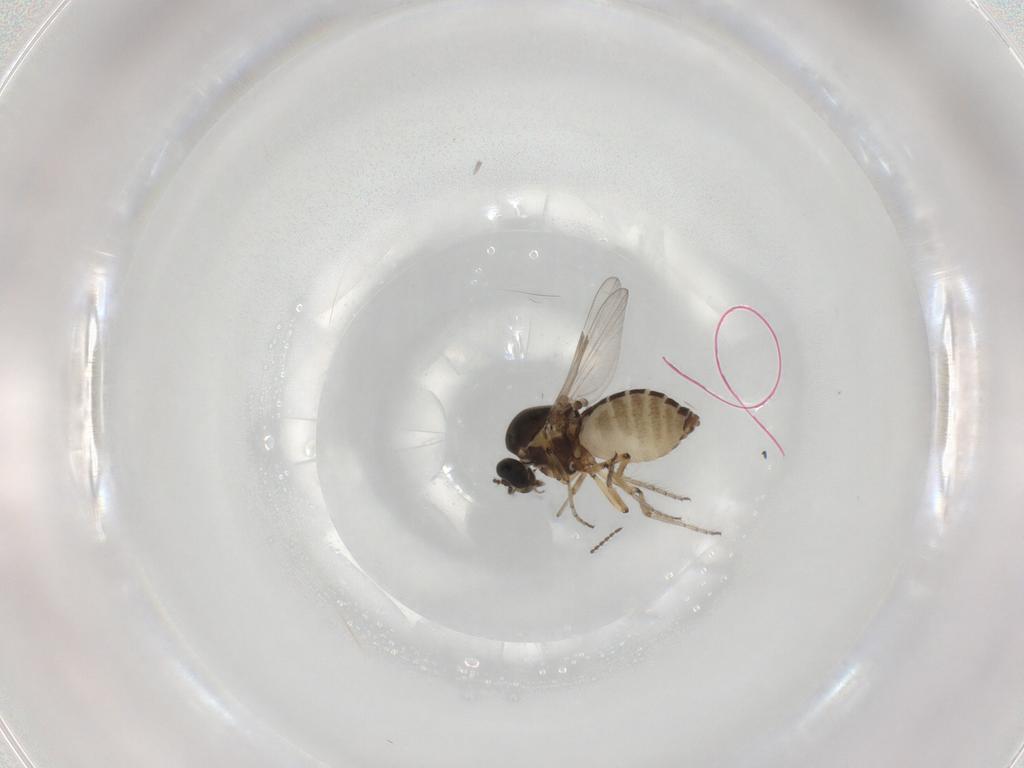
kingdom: Animalia
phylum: Arthropoda
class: Insecta
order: Diptera
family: Ceratopogonidae
